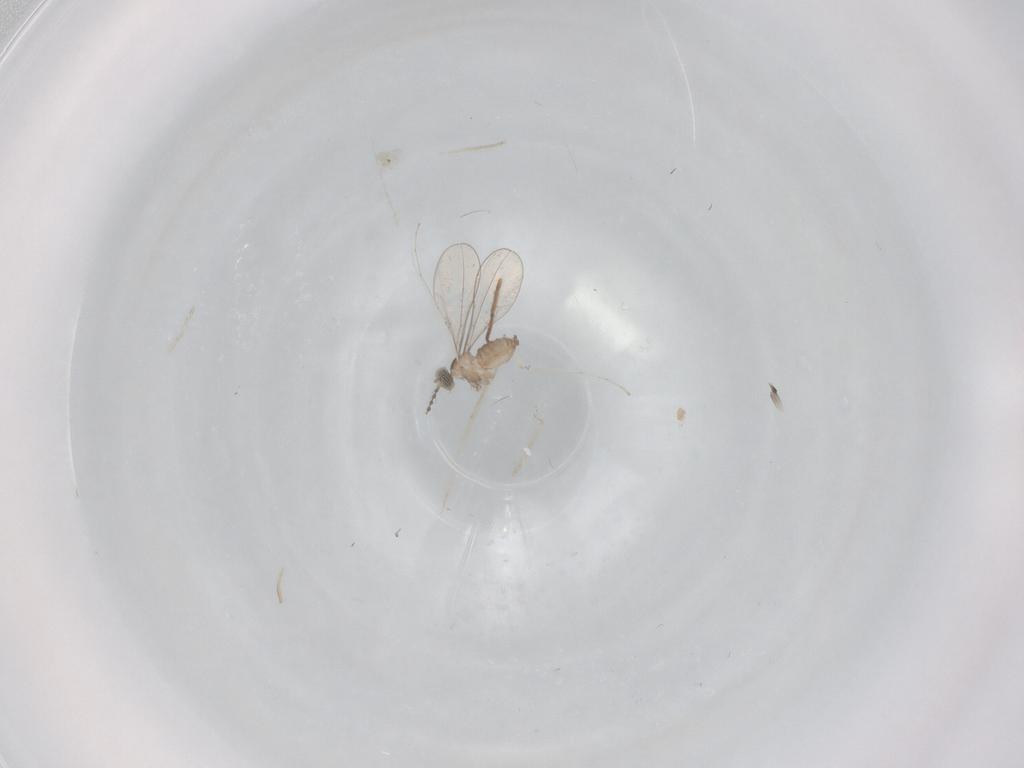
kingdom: Animalia
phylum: Arthropoda
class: Insecta
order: Diptera
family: Cecidomyiidae
